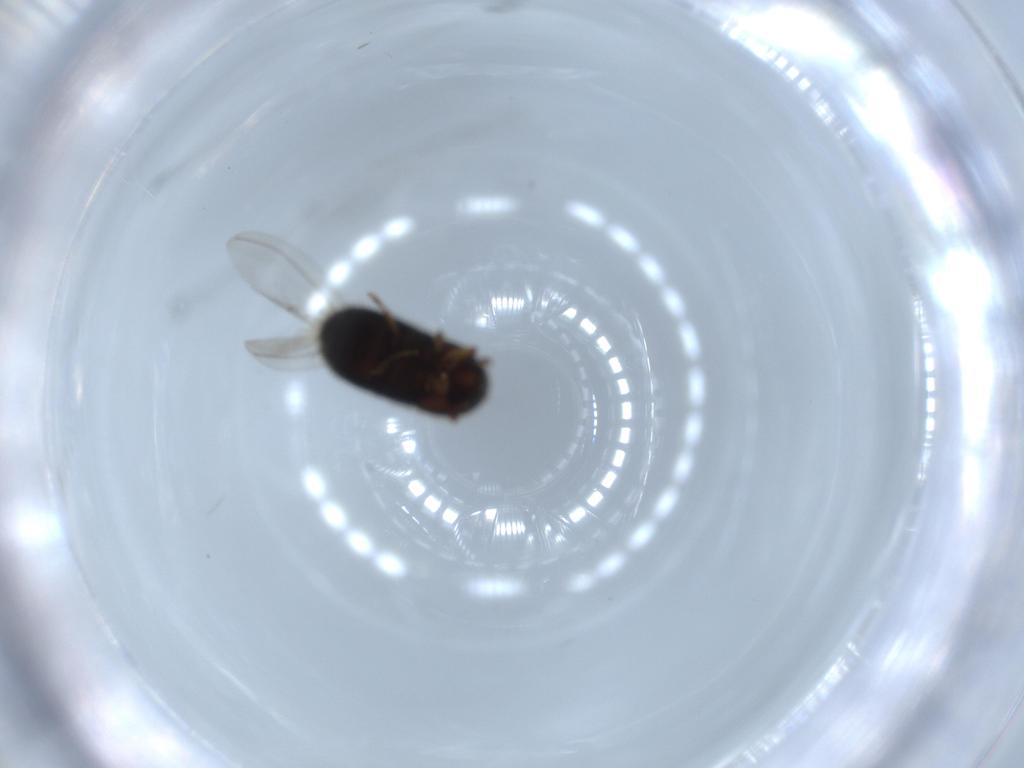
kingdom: Animalia
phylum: Arthropoda
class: Insecta
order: Coleoptera
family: Curculionidae
